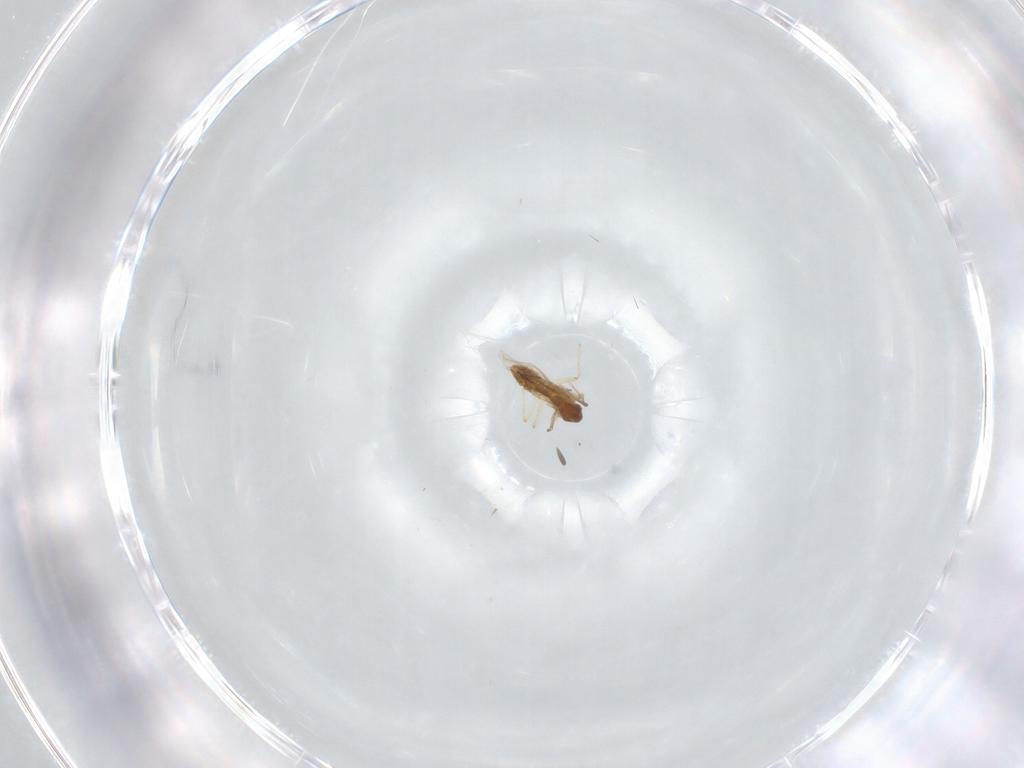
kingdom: Animalia
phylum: Arthropoda
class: Insecta
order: Diptera
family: Chironomidae
